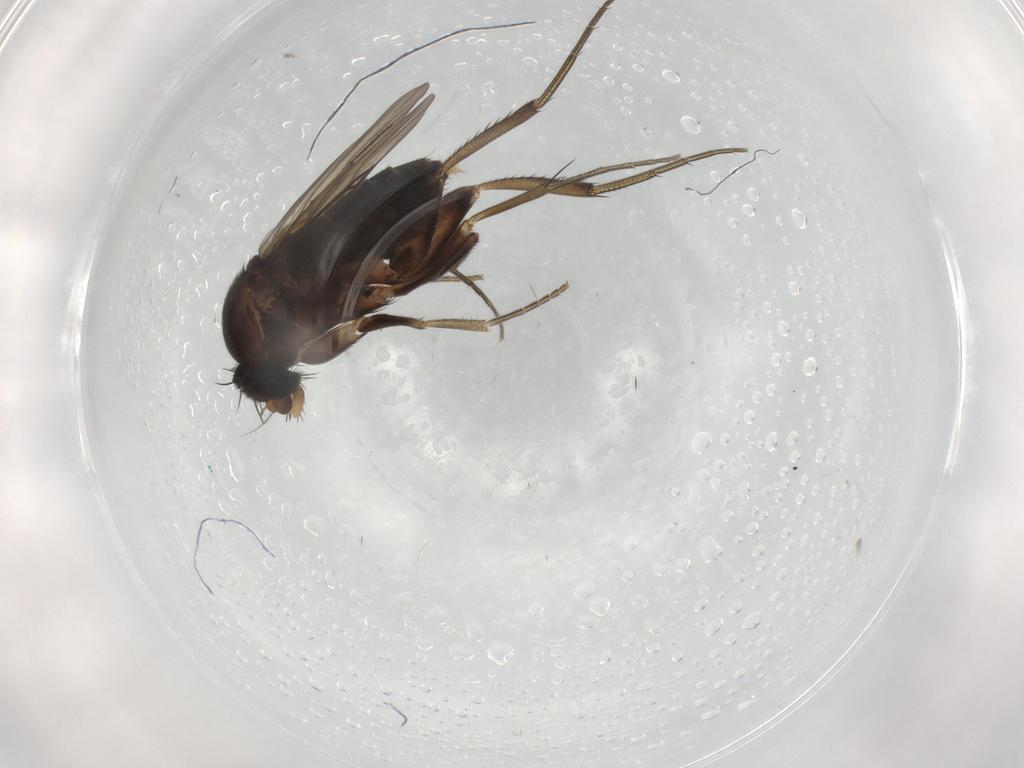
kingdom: Animalia
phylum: Arthropoda
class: Insecta
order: Diptera
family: Phoridae
